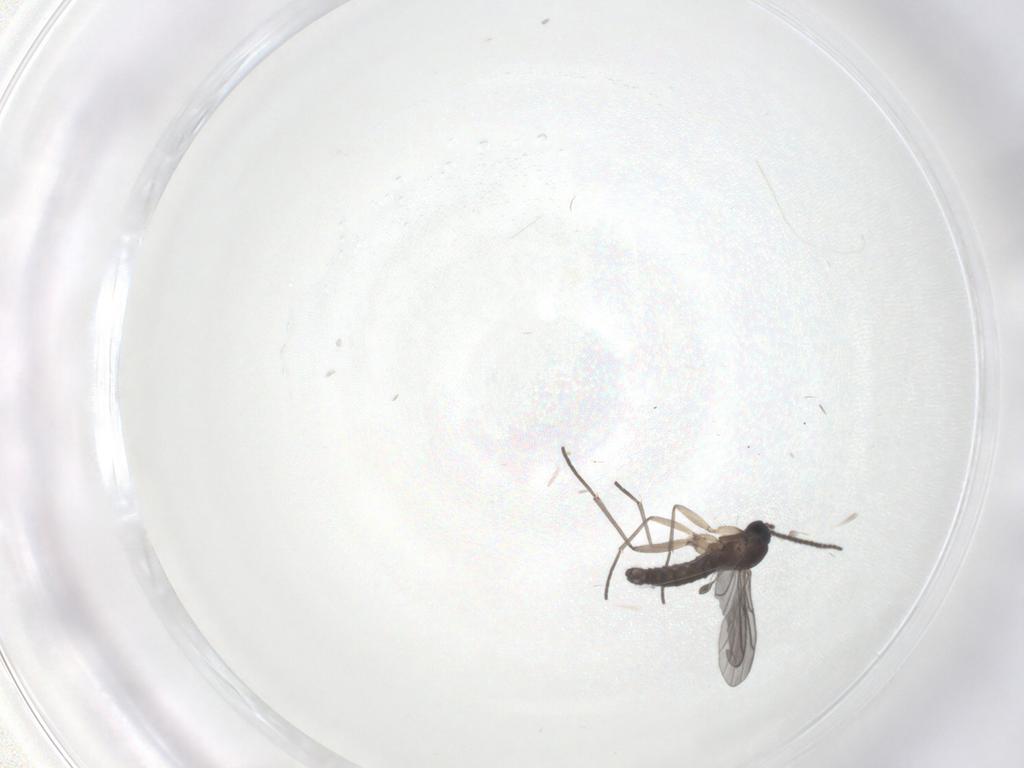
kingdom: Animalia
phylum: Arthropoda
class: Insecta
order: Diptera
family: Sciaridae
